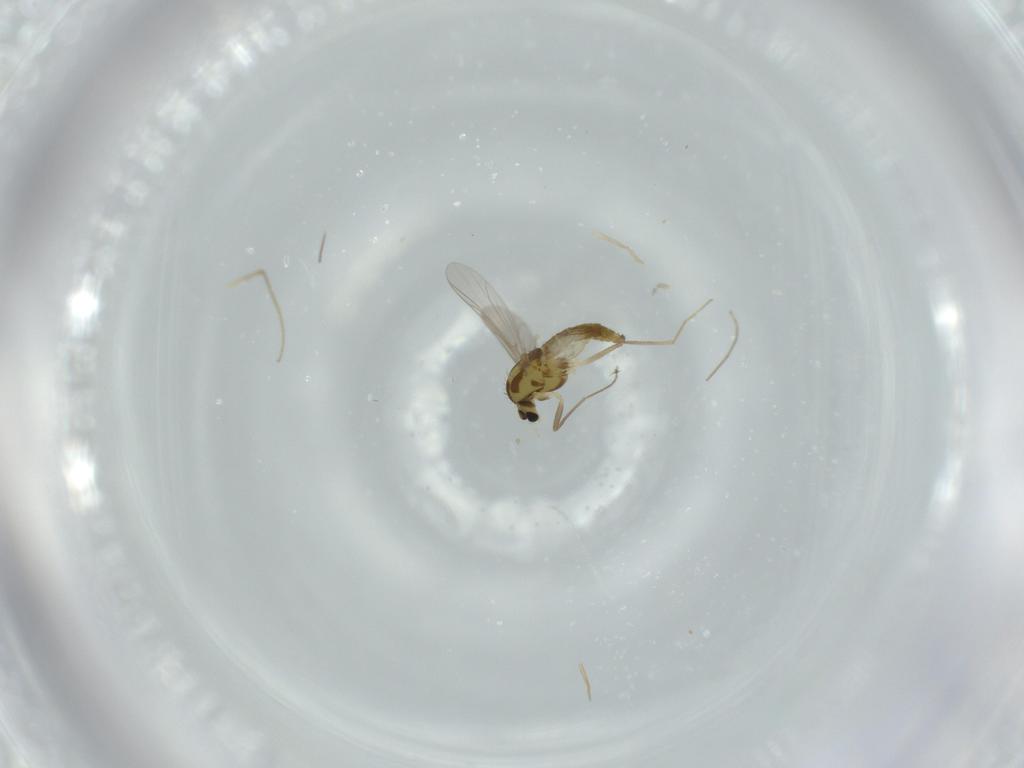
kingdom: Animalia
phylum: Arthropoda
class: Insecta
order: Diptera
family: Chironomidae
